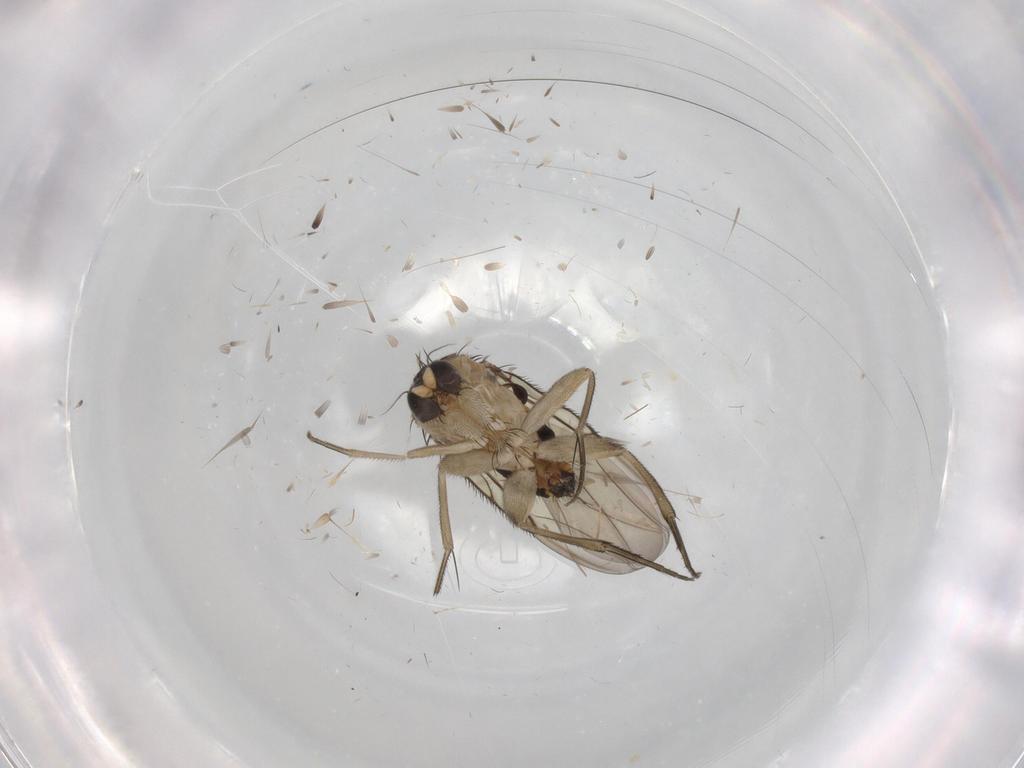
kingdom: Animalia
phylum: Arthropoda
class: Insecta
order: Diptera
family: Phoridae
